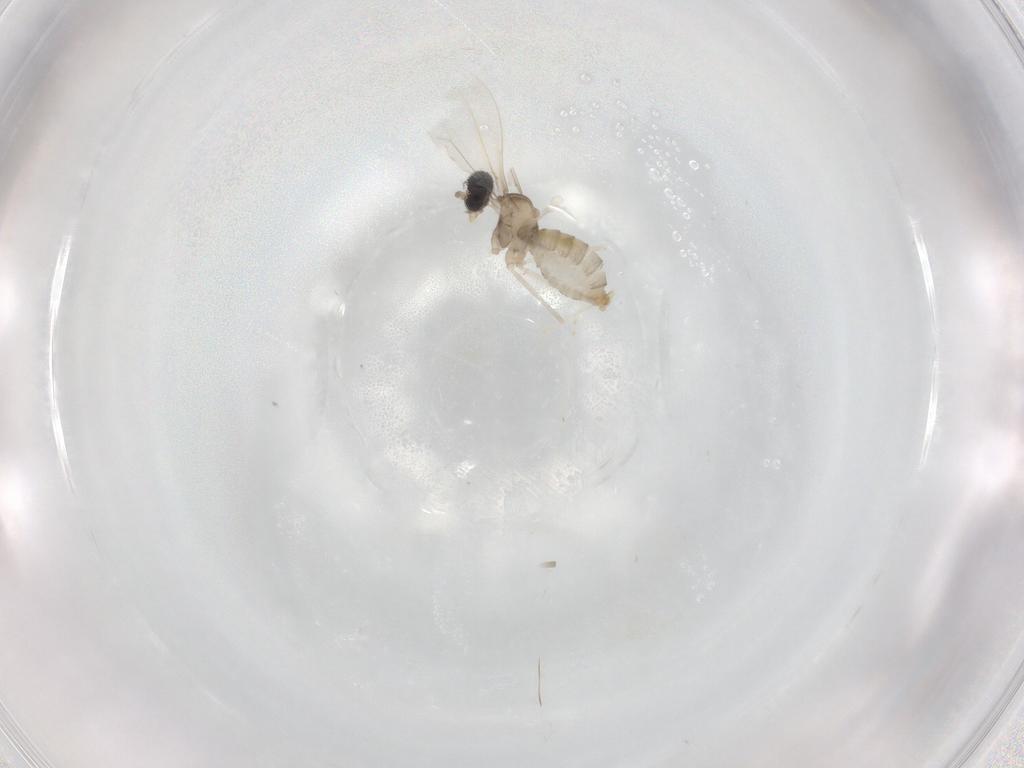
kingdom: Animalia
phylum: Arthropoda
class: Insecta
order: Diptera
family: Cecidomyiidae
